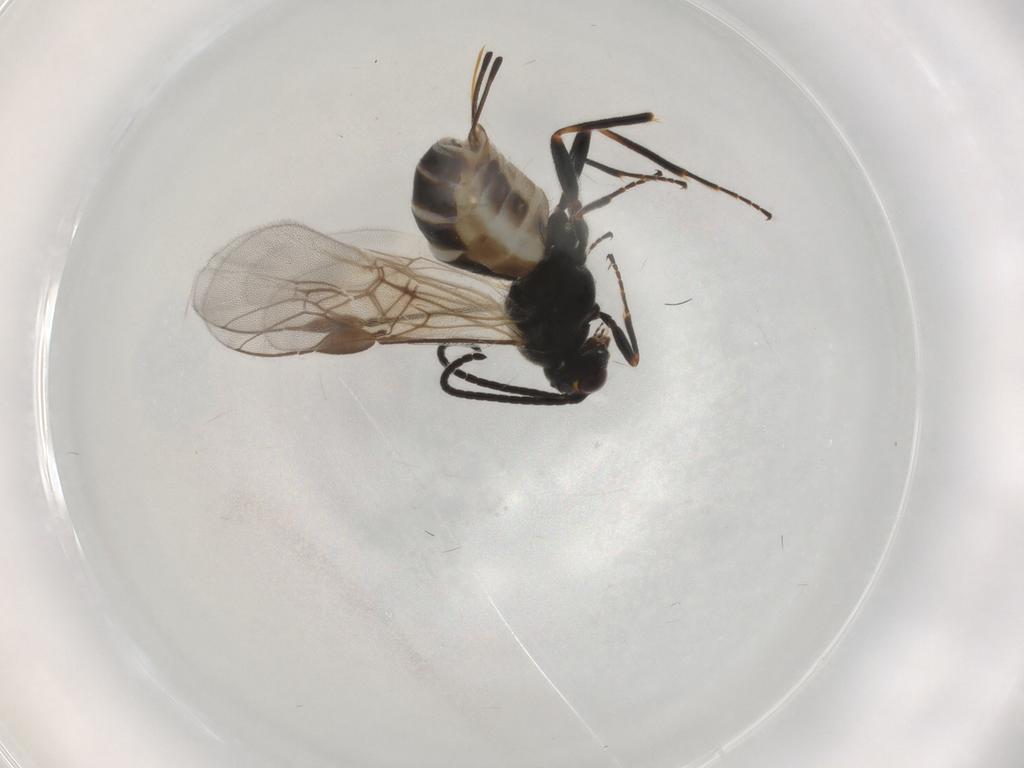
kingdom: Animalia
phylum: Arthropoda
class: Insecta
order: Hymenoptera
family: Braconidae
